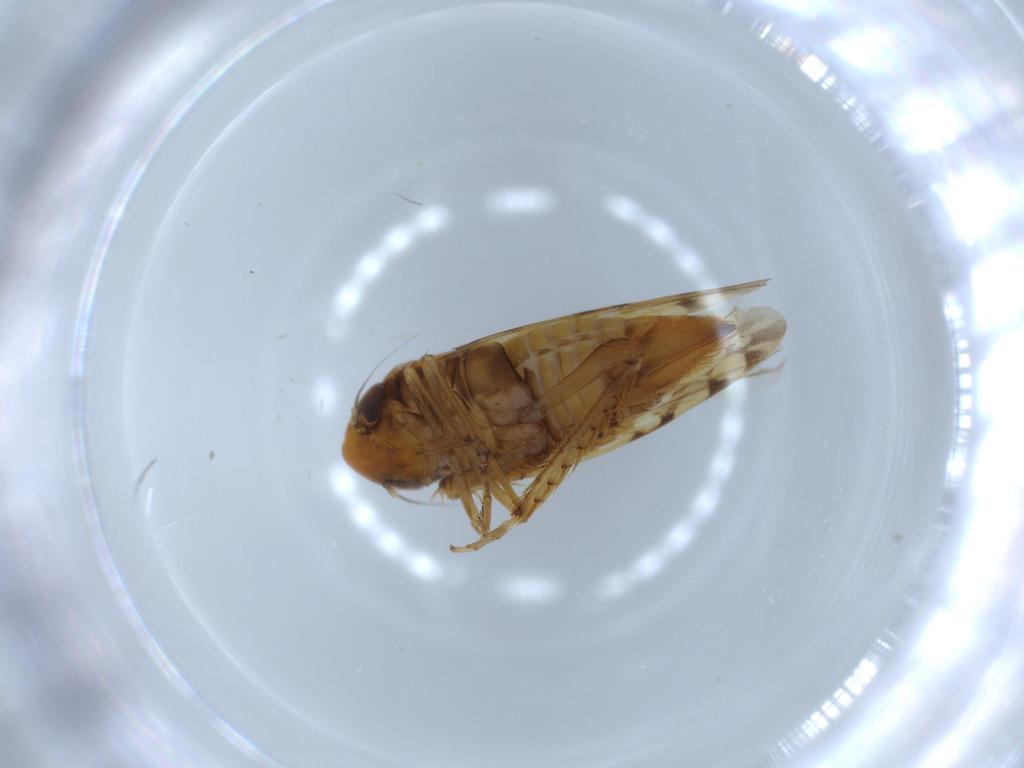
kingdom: Animalia
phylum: Arthropoda
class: Insecta
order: Hemiptera
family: Cicadellidae
